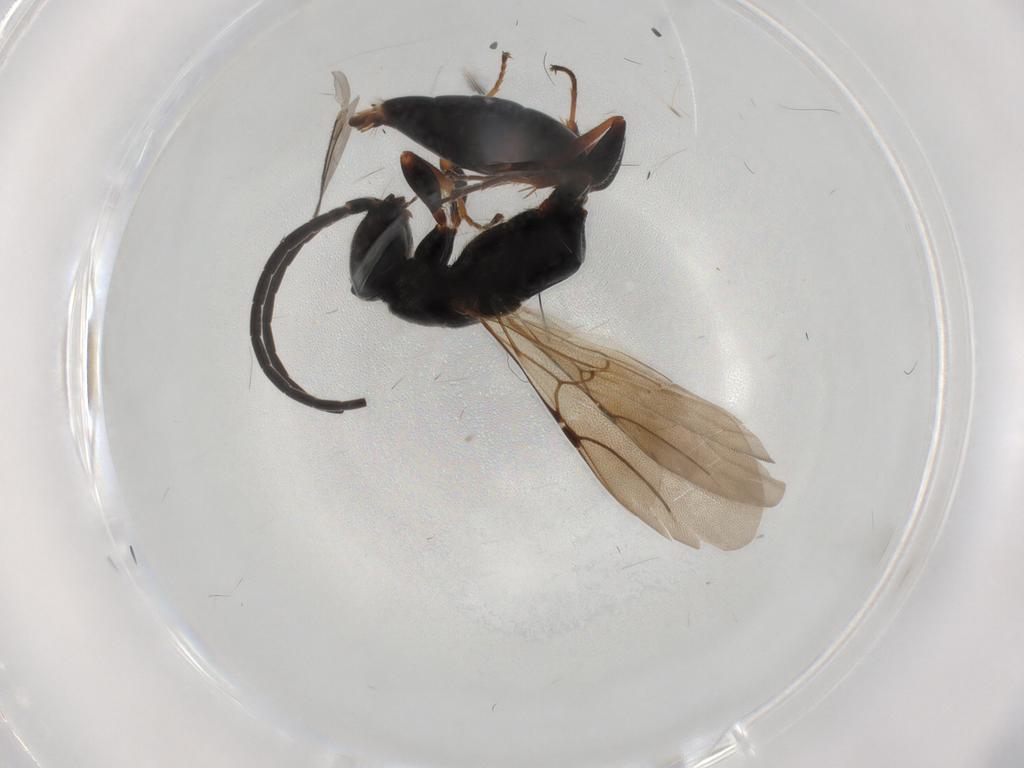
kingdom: Animalia
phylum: Arthropoda
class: Insecta
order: Hymenoptera
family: Bethylidae
